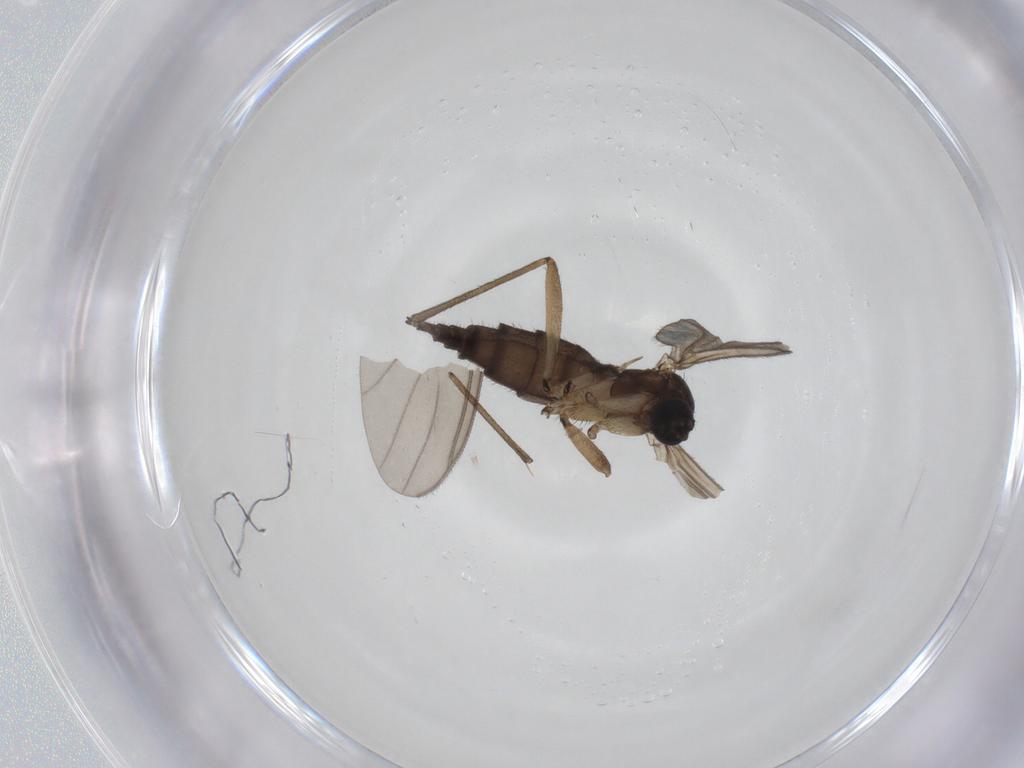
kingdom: Animalia
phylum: Arthropoda
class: Insecta
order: Diptera
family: Sciaridae
